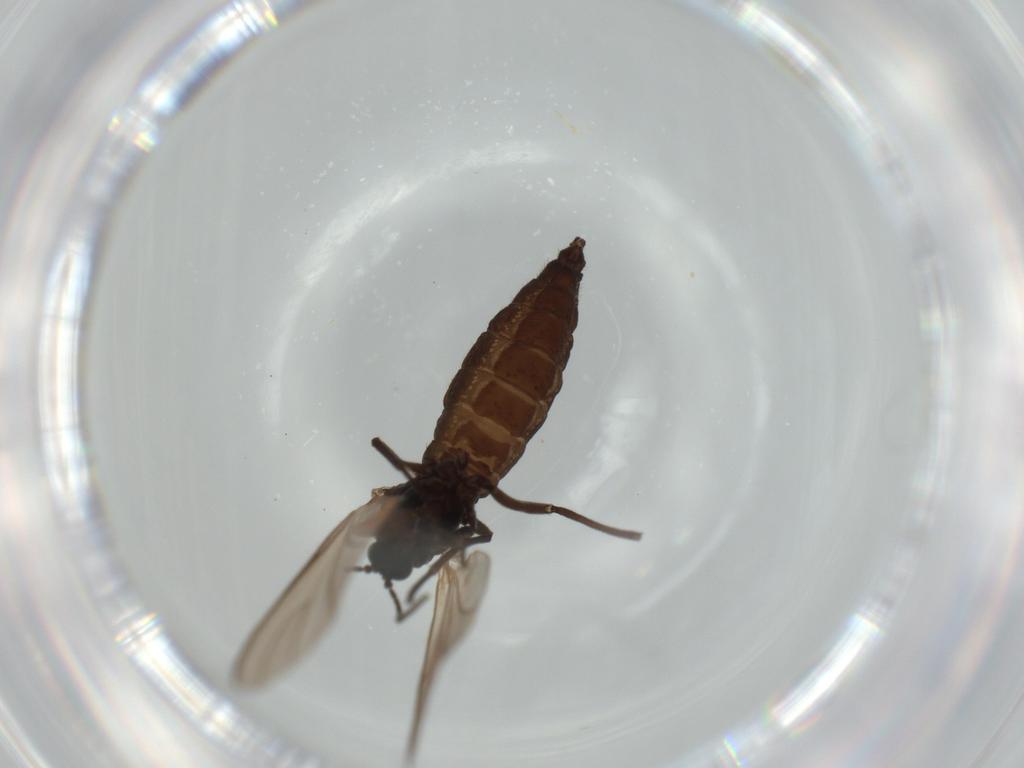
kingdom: Animalia
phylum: Arthropoda
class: Insecta
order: Diptera
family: Sciaridae
